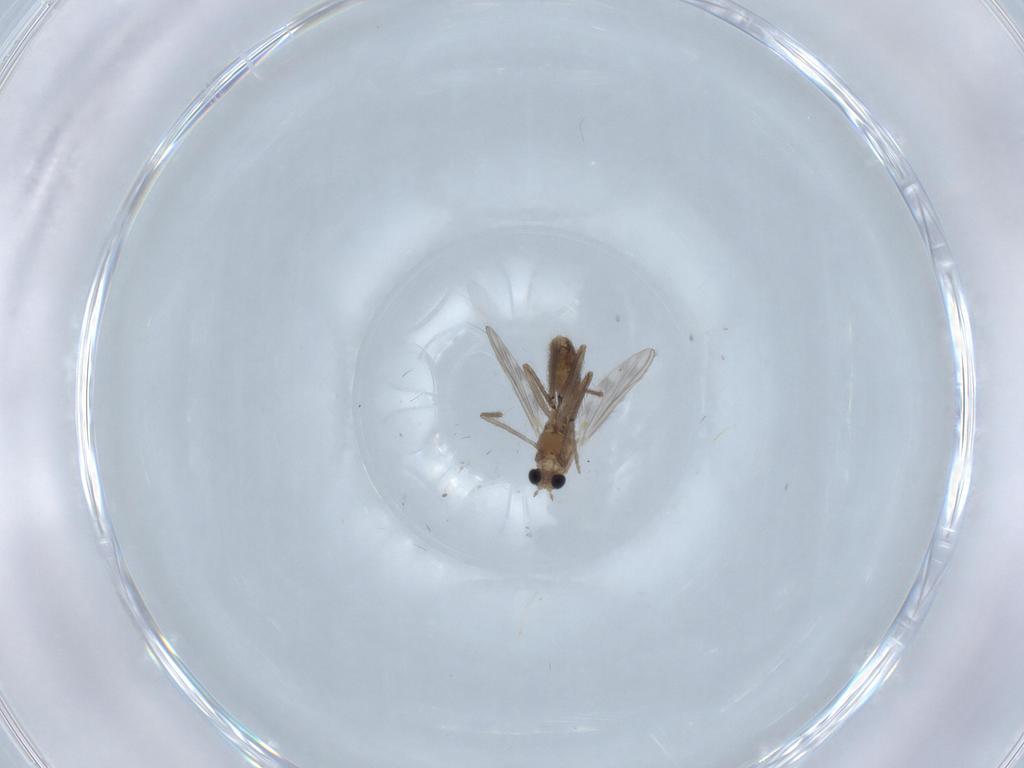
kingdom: Animalia
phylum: Arthropoda
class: Insecta
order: Diptera
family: Chironomidae
